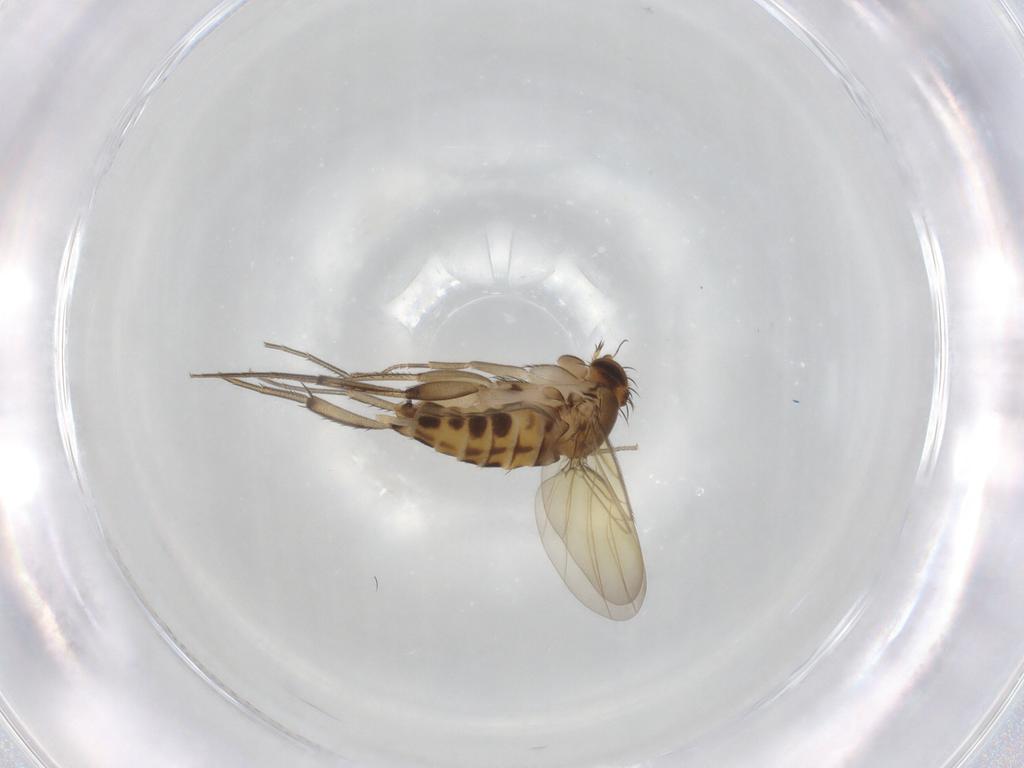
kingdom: Animalia
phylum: Arthropoda
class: Insecta
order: Diptera
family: Phoridae
